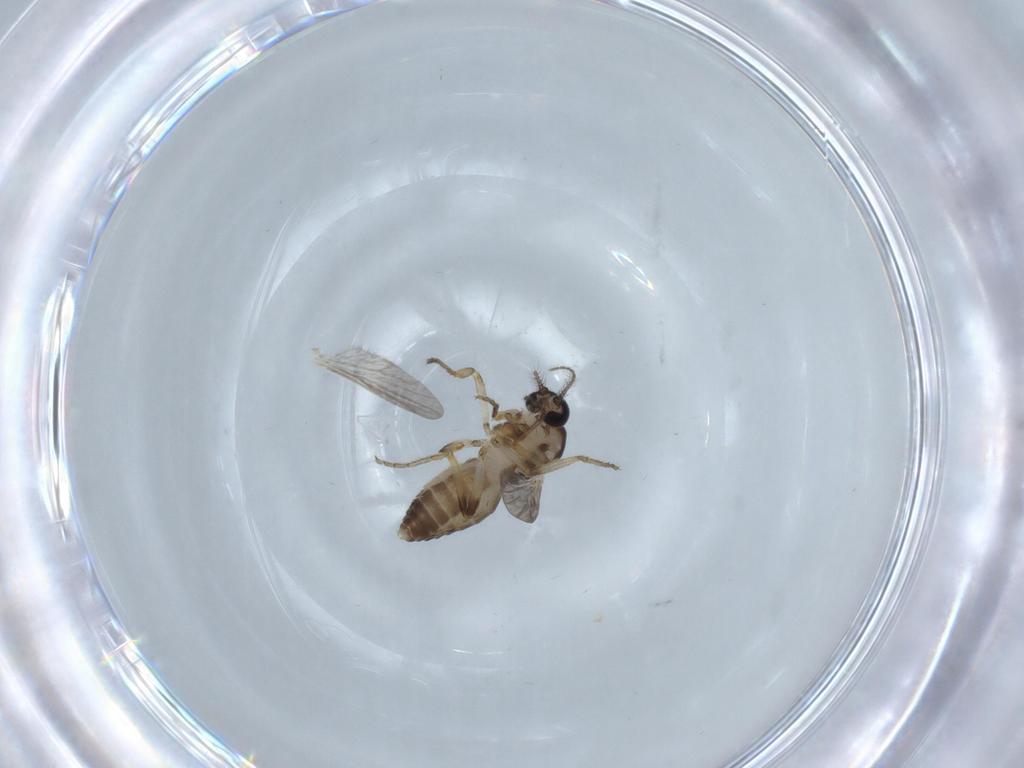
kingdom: Animalia
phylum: Arthropoda
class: Insecta
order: Diptera
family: Ceratopogonidae
